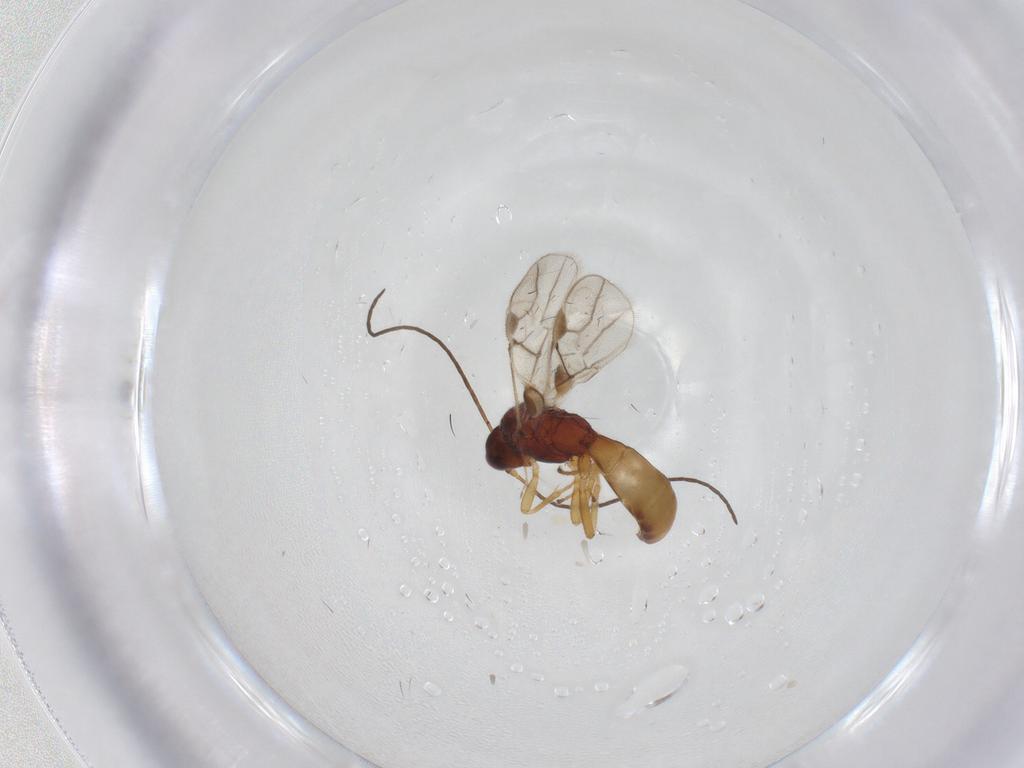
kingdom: Animalia
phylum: Arthropoda
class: Insecta
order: Hymenoptera
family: Braconidae
